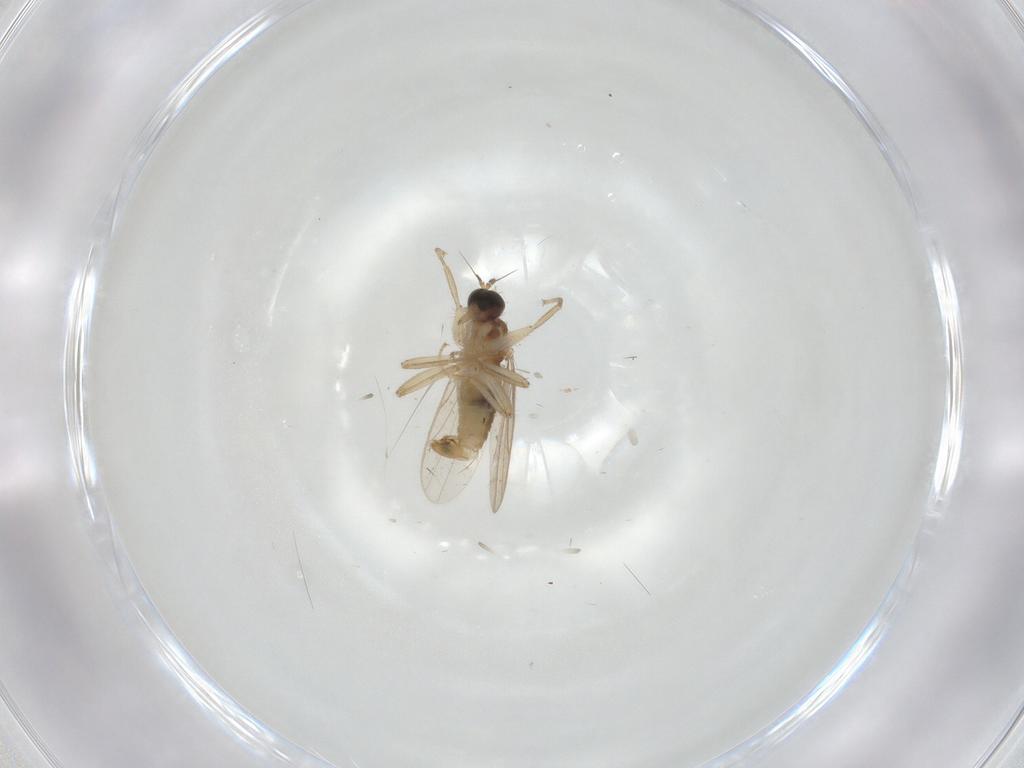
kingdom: Animalia
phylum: Arthropoda
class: Insecta
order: Diptera
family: Hybotidae
